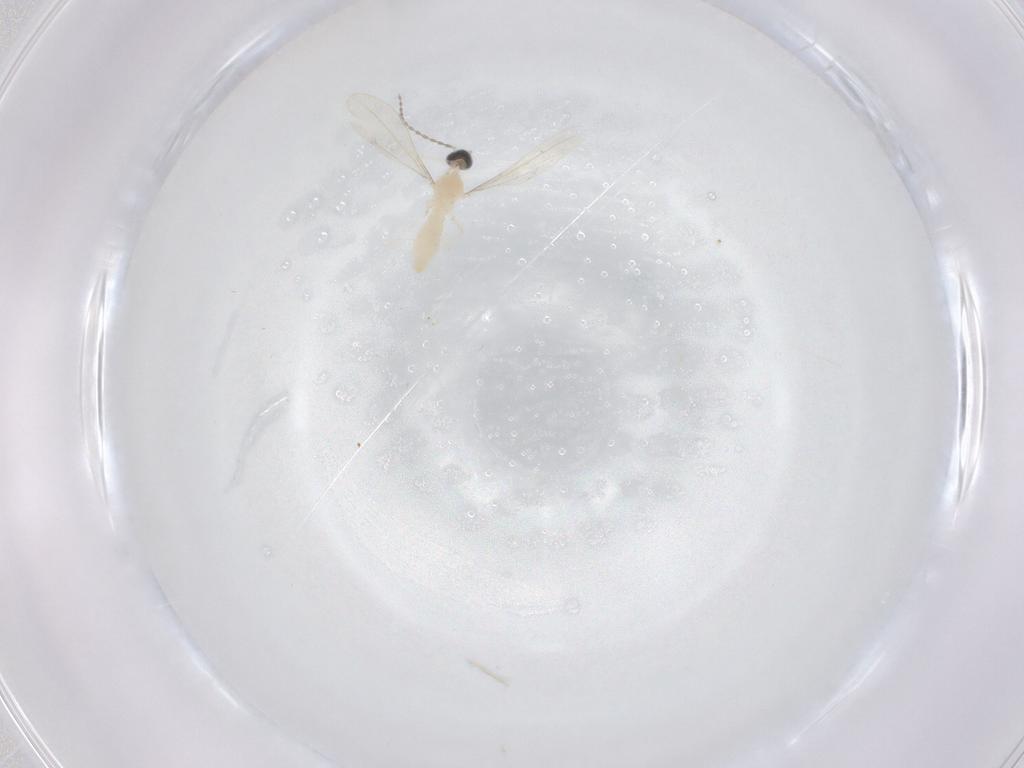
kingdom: Animalia
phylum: Arthropoda
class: Insecta
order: Diptera
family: Cecidomyiidae
